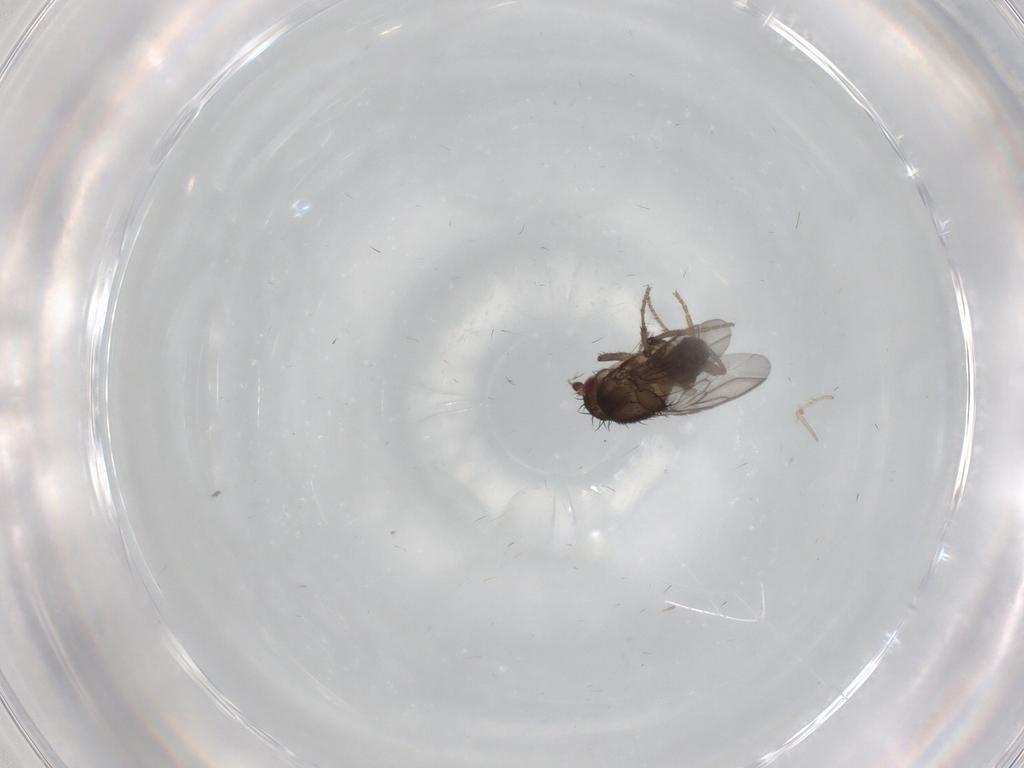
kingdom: Animalia
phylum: Arthropoda
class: Insecta
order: Diptera
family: Cecidomyiidae
